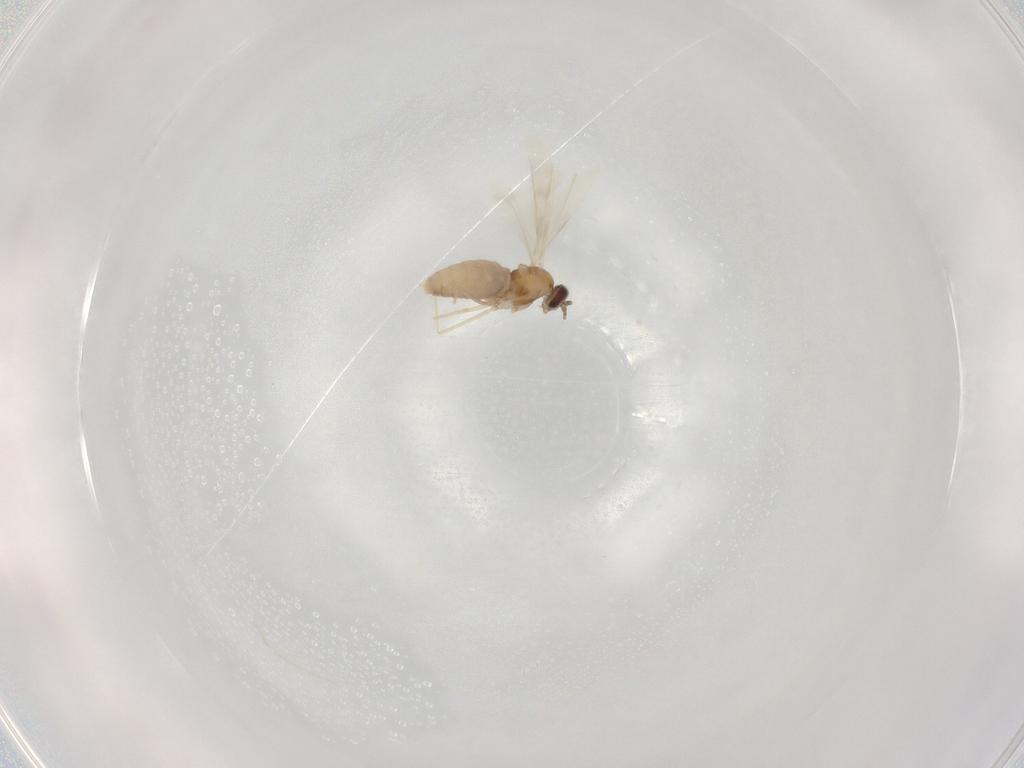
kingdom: Animalia
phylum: Arthropoda
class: Insecta
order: Diptera
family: Cecidomyiidae
